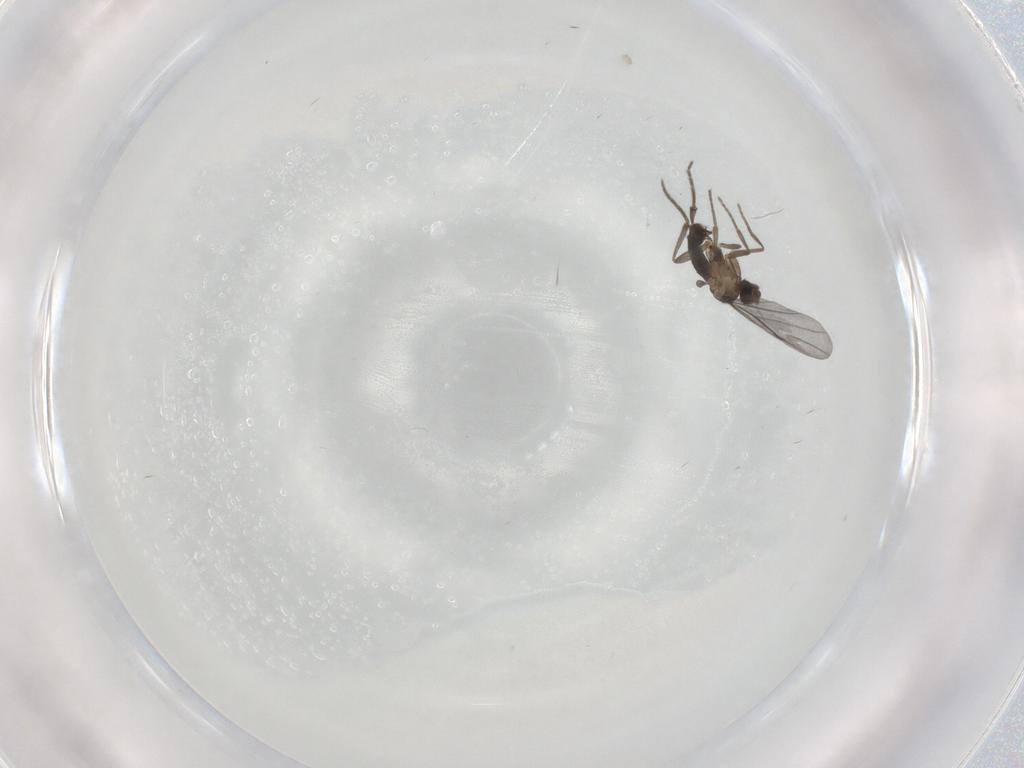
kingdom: Animalia
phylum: Arthropoda
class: Insecta
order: Diptera
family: Phoridae
